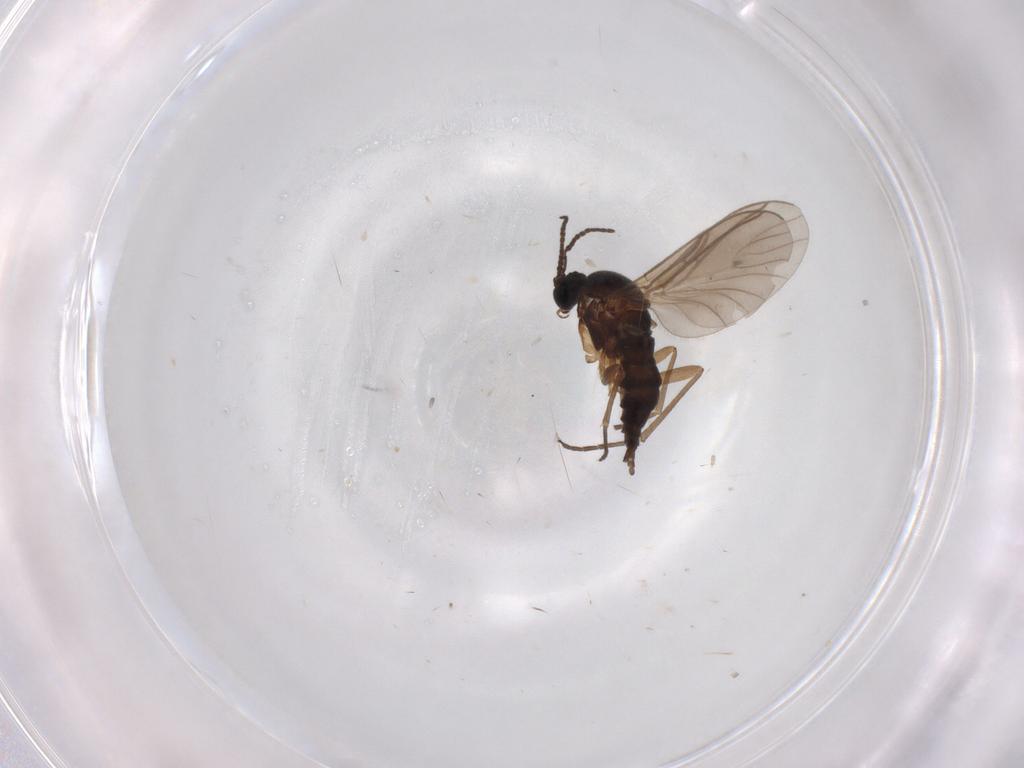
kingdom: Animalia
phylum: Arthropoda
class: Insecta
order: Diptera
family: Sciaridae
